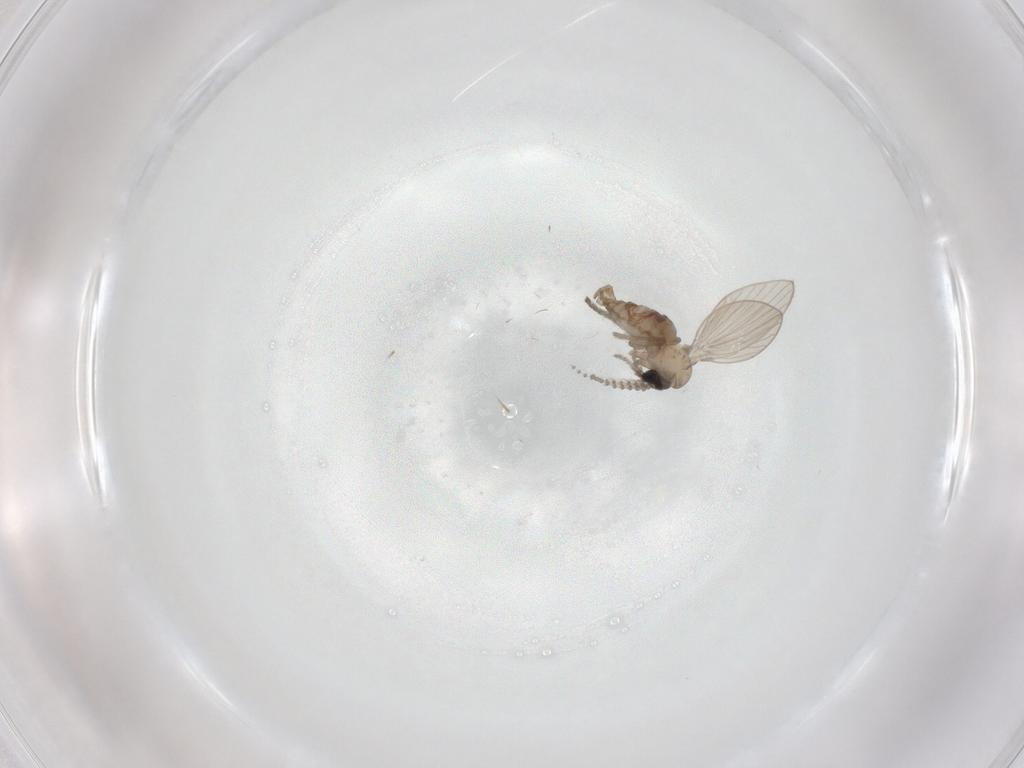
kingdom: Animalia
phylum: Arthropoda
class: Insecta
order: Diptera
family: Psychodidae
